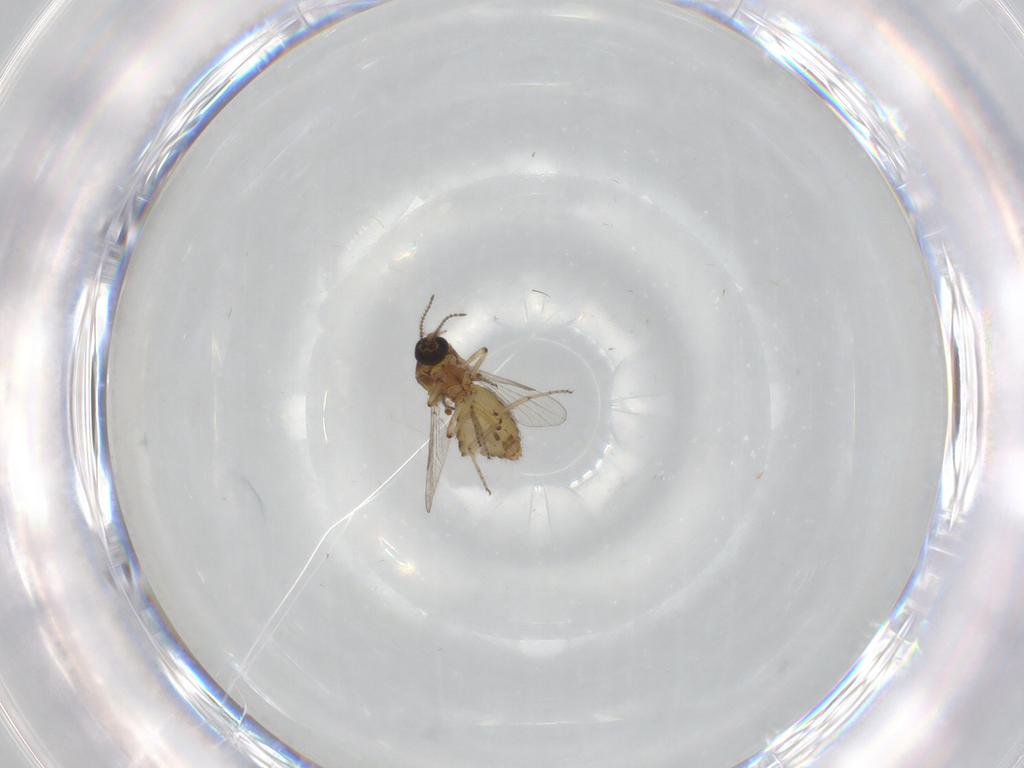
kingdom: Animalia
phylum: Arthropoda
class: Insecta
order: Diptera
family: Ceratopogonidae
